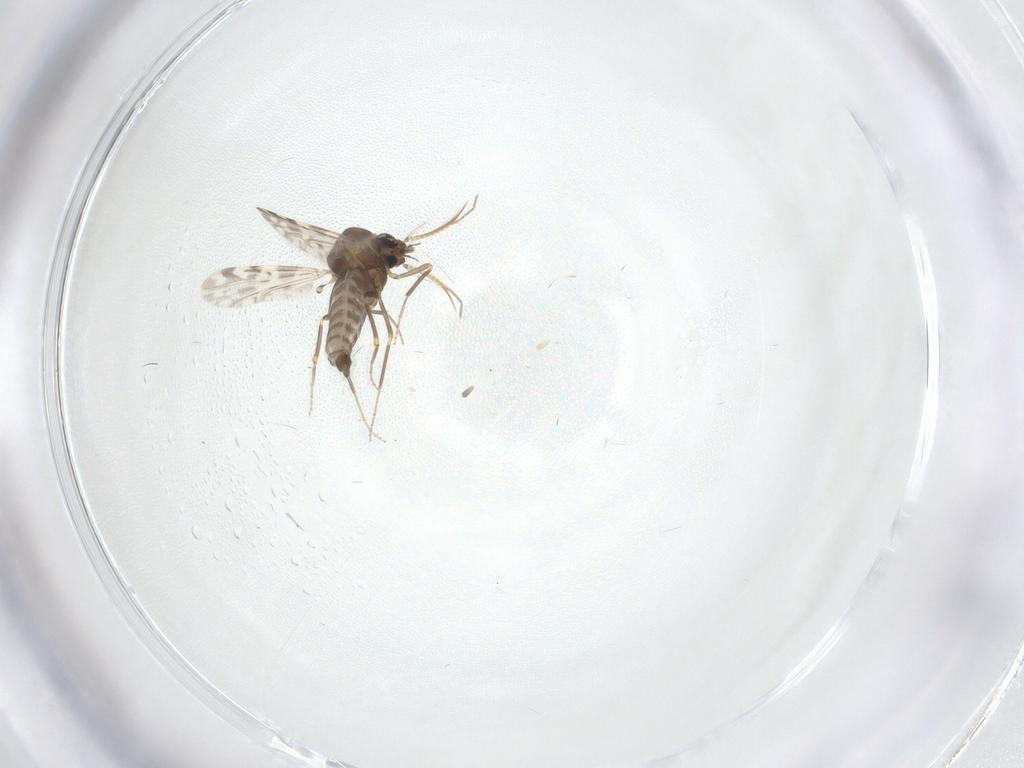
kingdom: Animalia
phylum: Arthropoda
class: Insecta
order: Diptera
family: Ceratopogonidae
